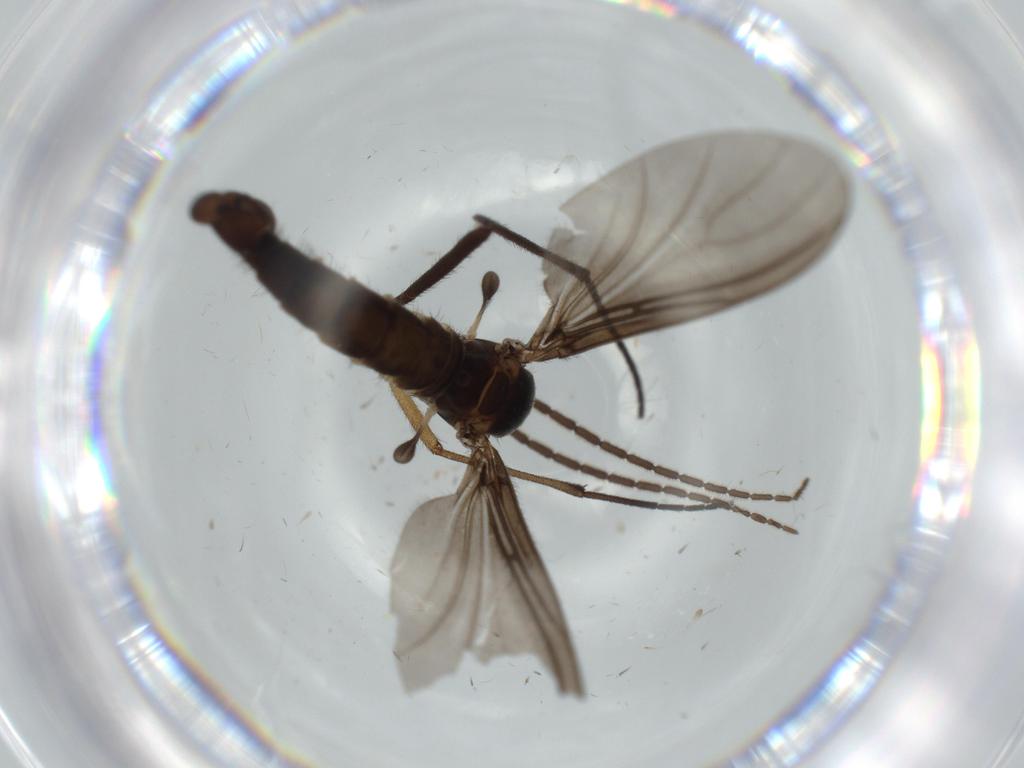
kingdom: Animalia
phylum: Arthropoda
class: Insecta
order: Diptera
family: Sciaridae
